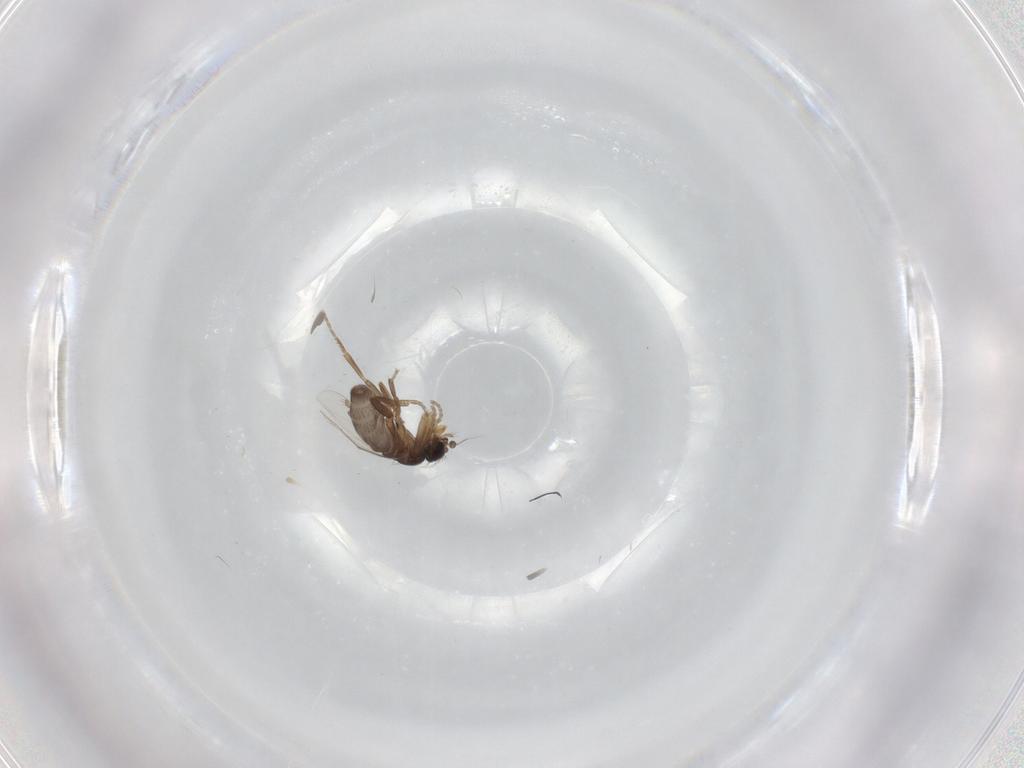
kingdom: Animalia
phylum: Arthropoda
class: Insecta
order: Diptera
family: Phoridae
